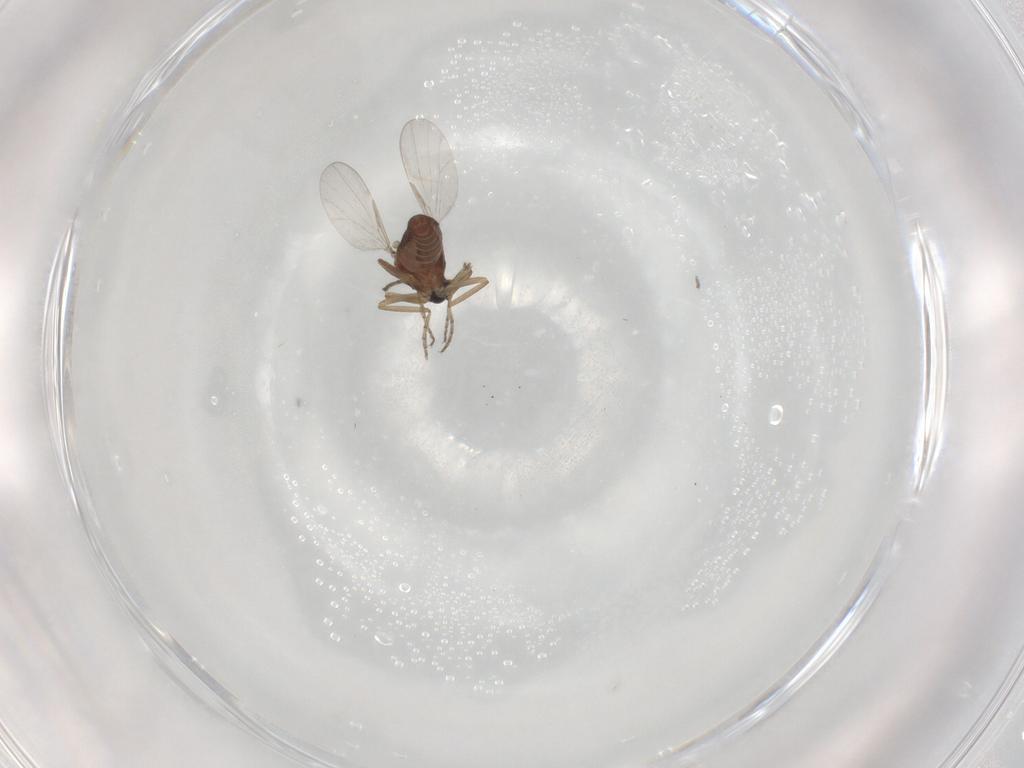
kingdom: Animalia
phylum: Arthropoda
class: Insecta
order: Diptera
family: Ceratopogonidae
